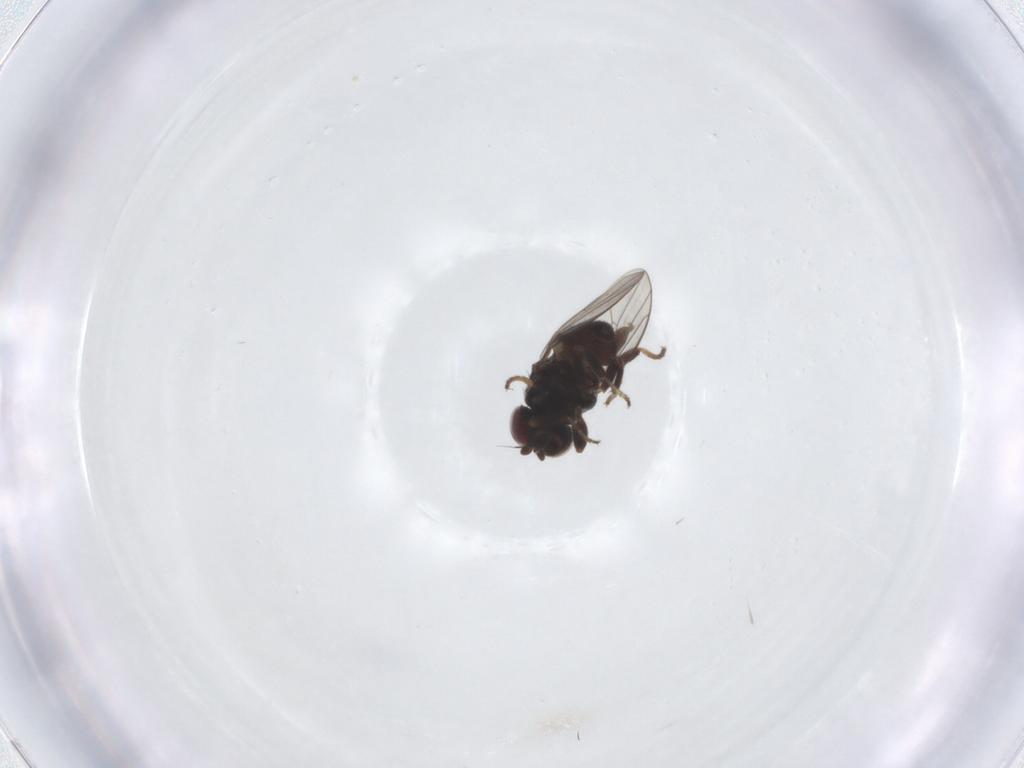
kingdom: Animalia
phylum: Arthropoda
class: Insecta
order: Diptera
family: Chloropidae
